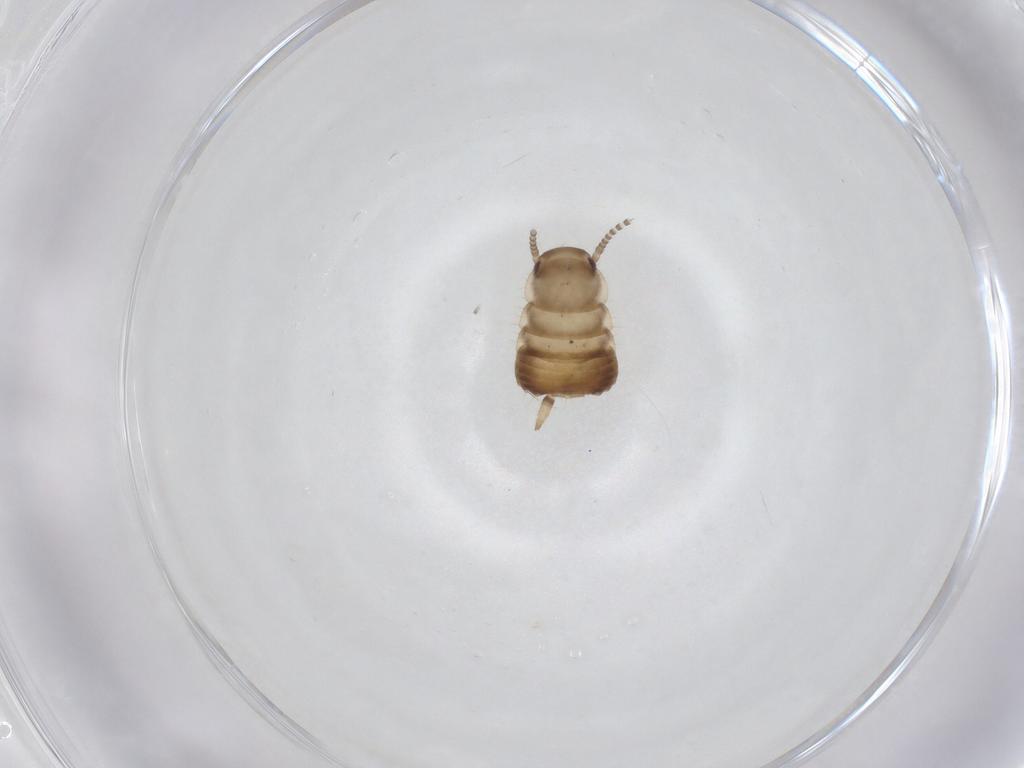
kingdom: Animalia
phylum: Arthropoda
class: Insecta
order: Blattodea
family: Ectobiidae
